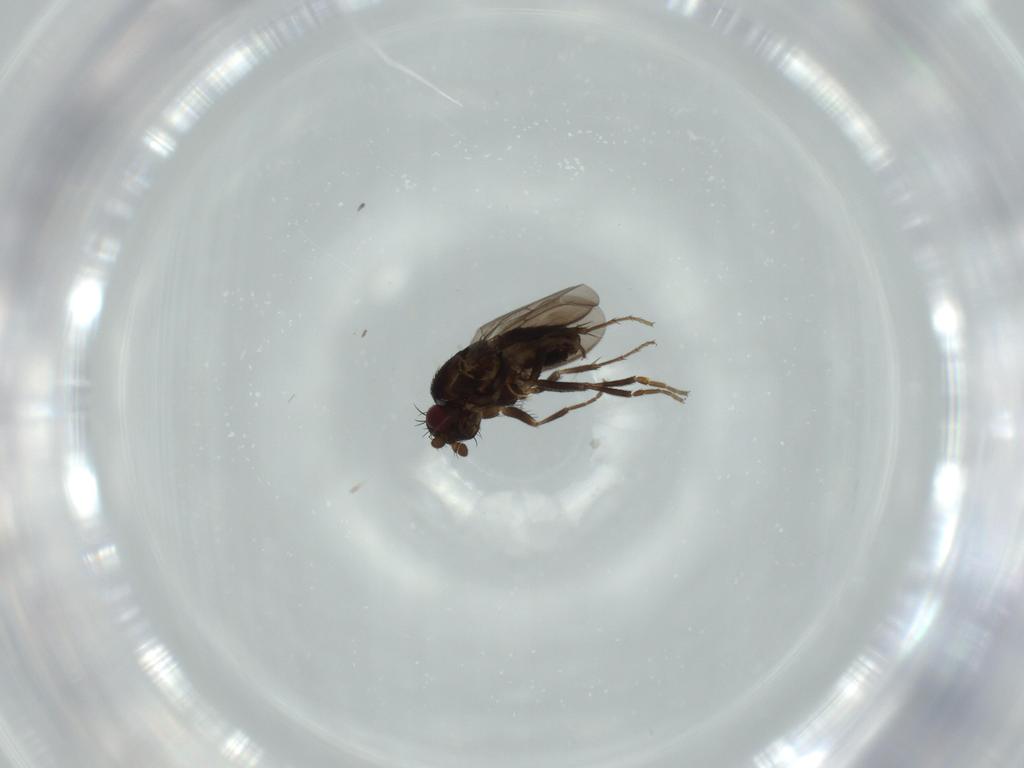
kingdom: Animalia
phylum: Arthropoda
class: Insecta
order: Diptera
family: Sphaeroceridae
